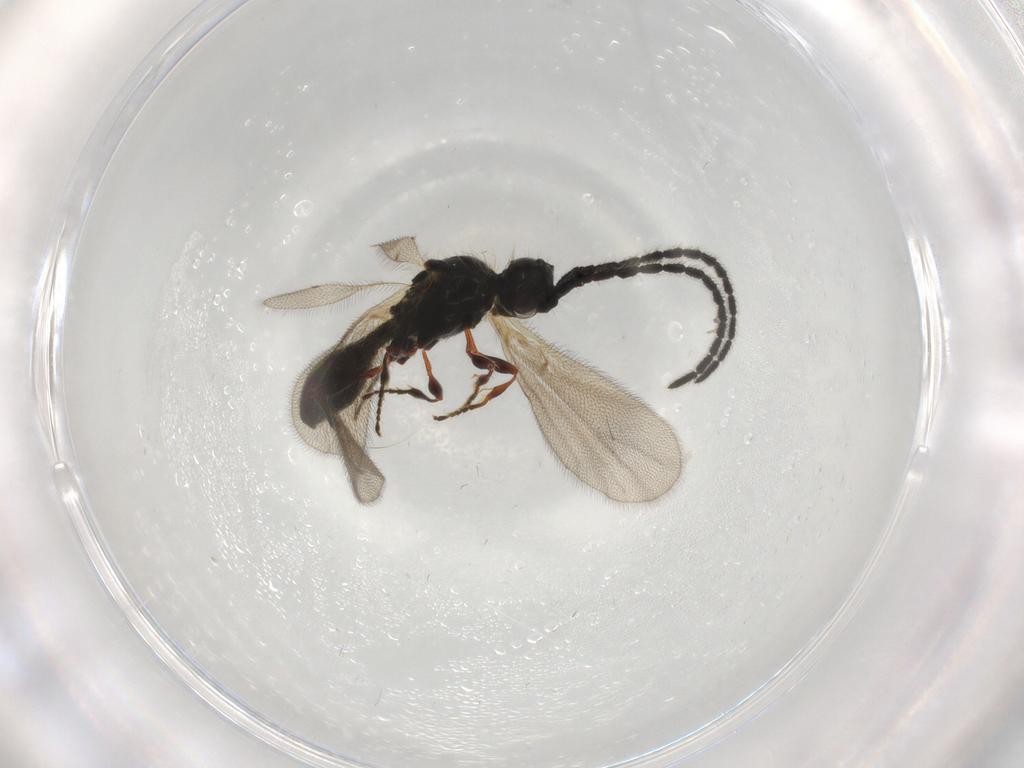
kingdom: Animalia
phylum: Arthropoda
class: Insecta
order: Hymenoptera
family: Diapriidae
